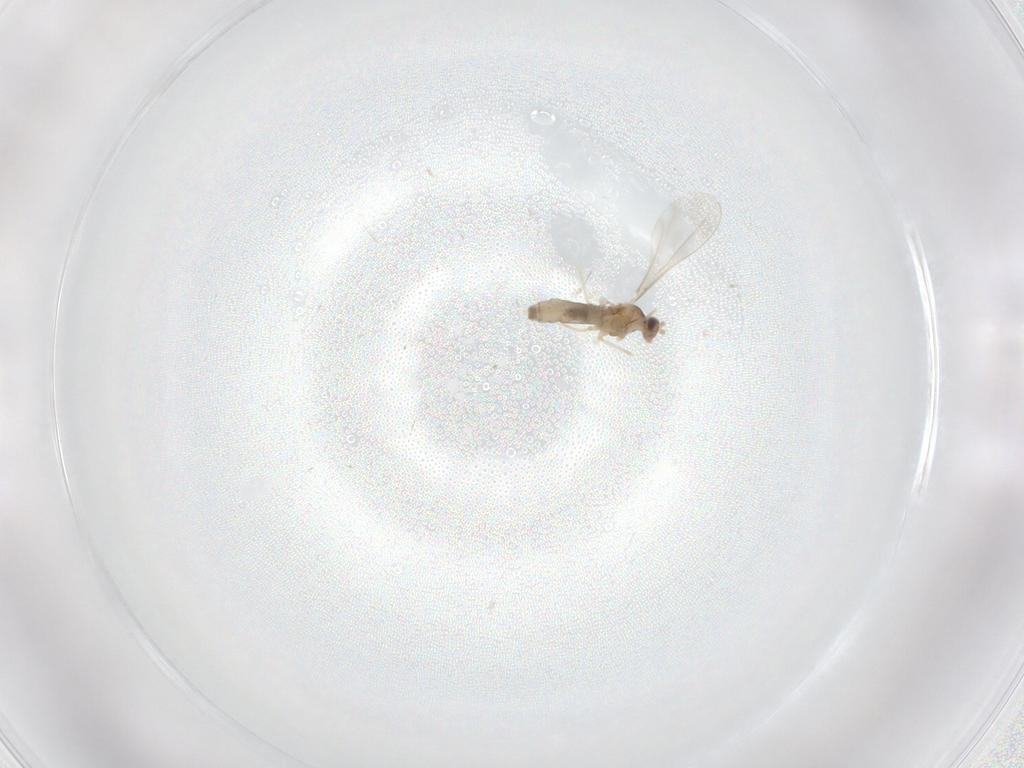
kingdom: Animalia
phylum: Arthropoda
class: Insecta
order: Diptera
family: Cecidomyiidae
